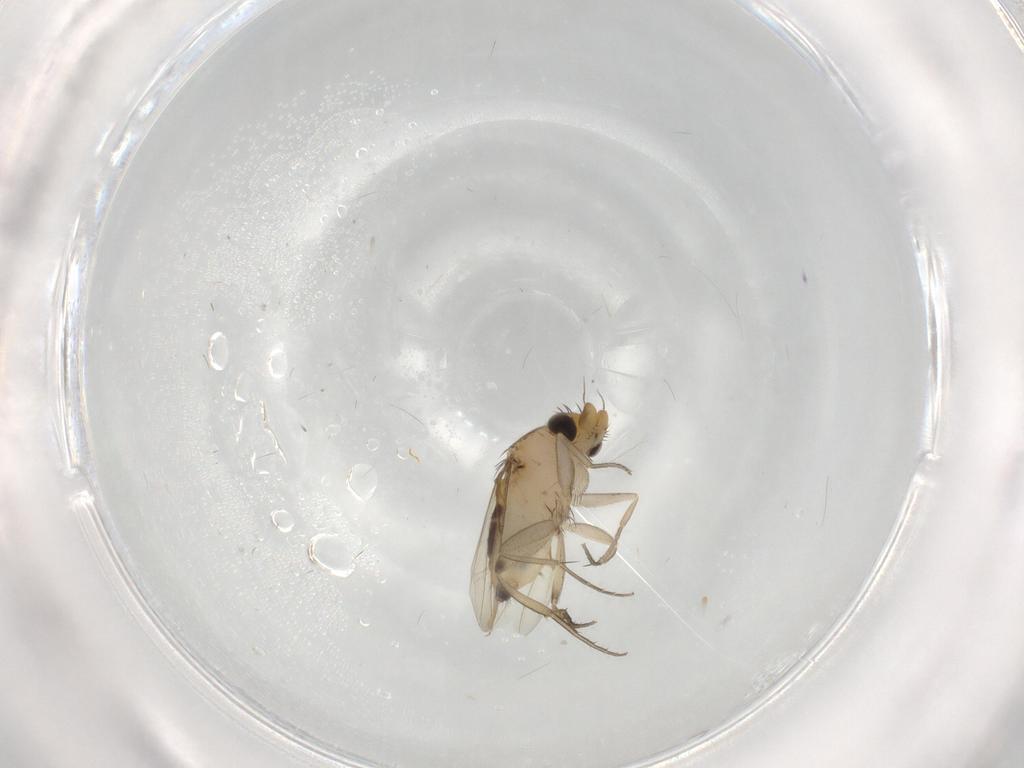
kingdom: Animalia
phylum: Arthropoda
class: Insecta
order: Diptera
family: Phoridae
